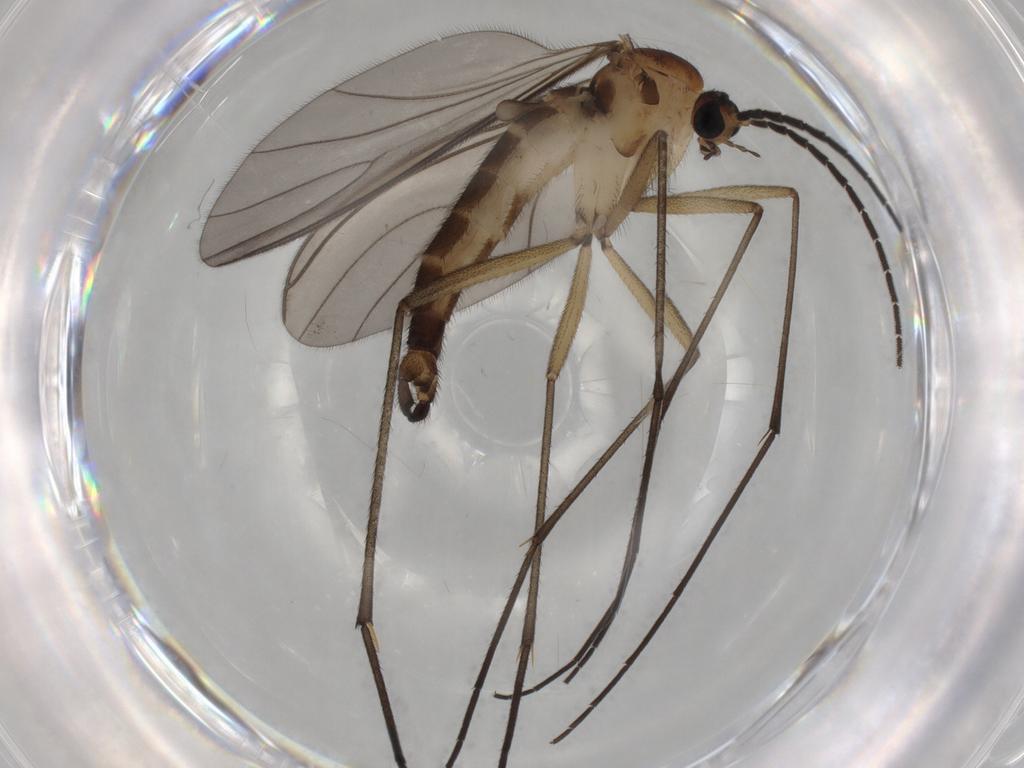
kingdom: Animalia
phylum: Arthropoda
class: Insecta
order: Diptera
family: Sciaridae
